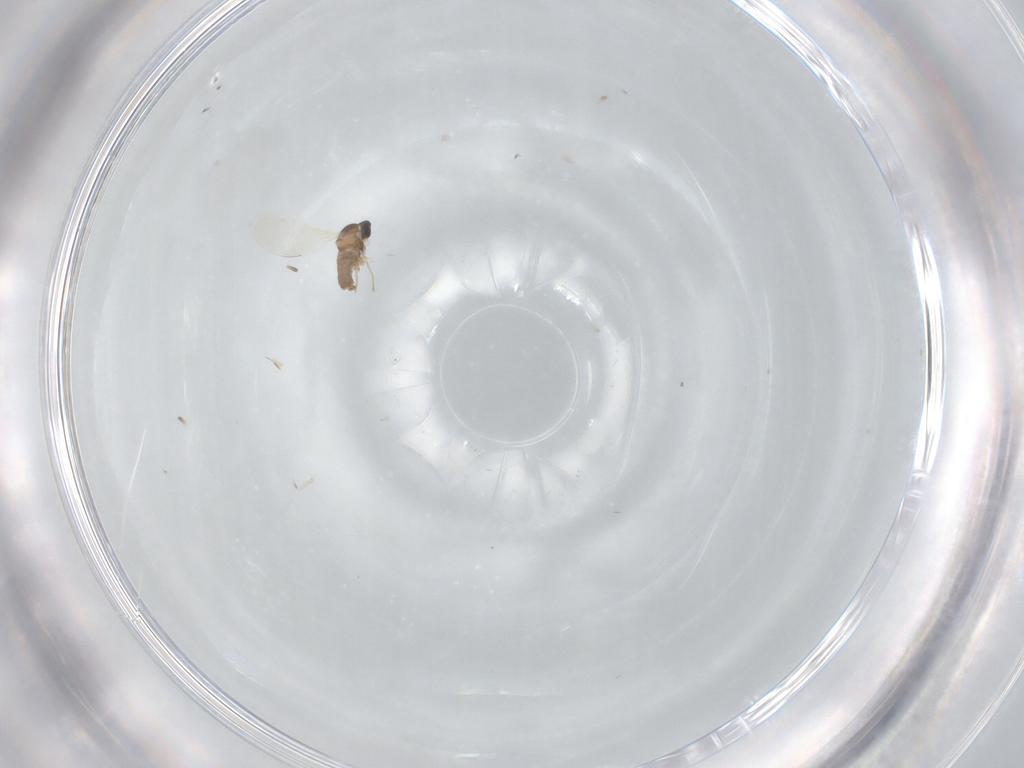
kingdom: Animalia
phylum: Arthropoda
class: Insecta
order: Diptera
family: Cecidomyiidae
